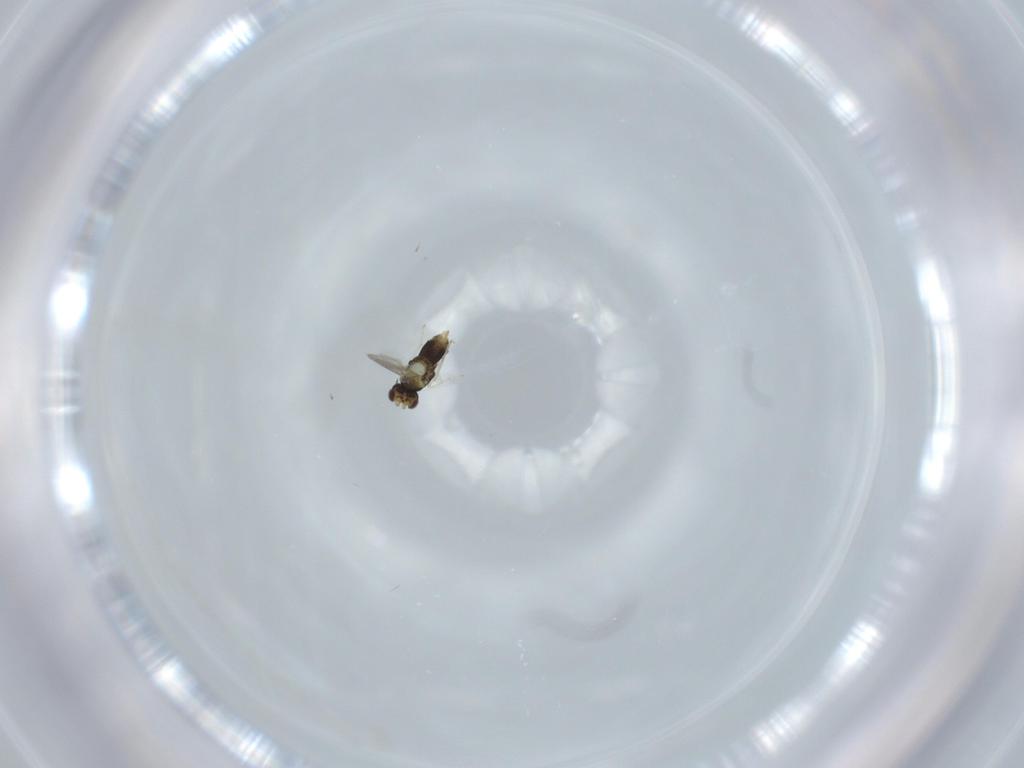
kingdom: Animalia
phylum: Arthropoda
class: Insecta
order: Hymenoptera
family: Aphelinidae
